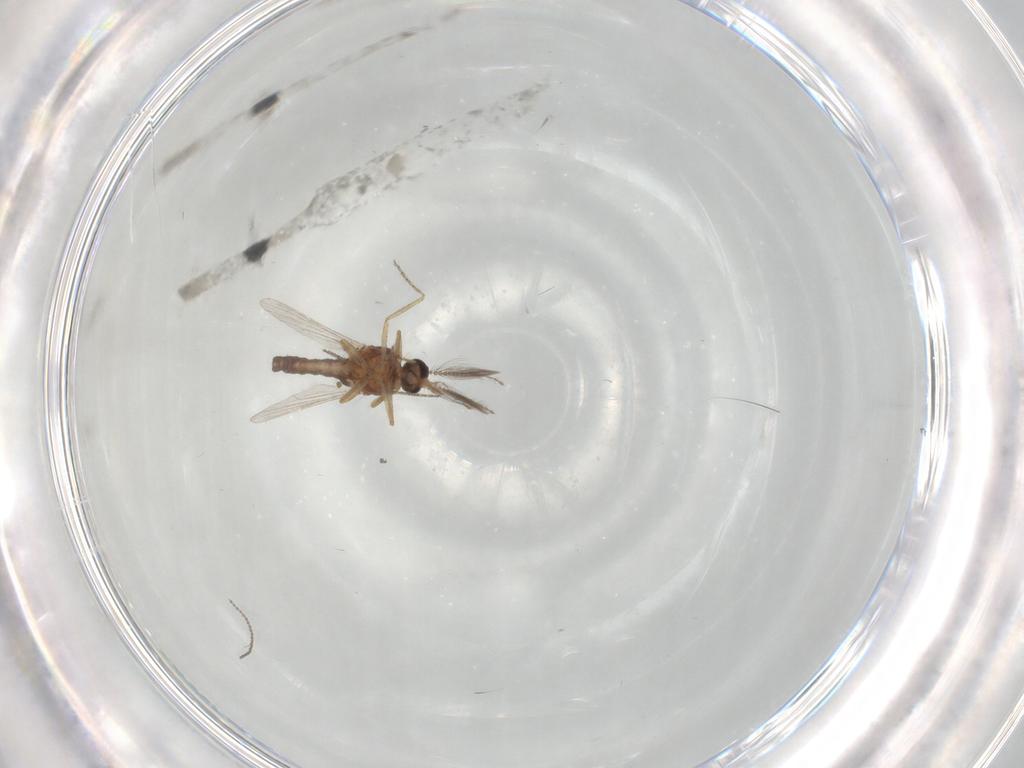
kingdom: Animalia
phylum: Arthropoda
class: Insecta
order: Diptera
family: Ceratopogonidae
